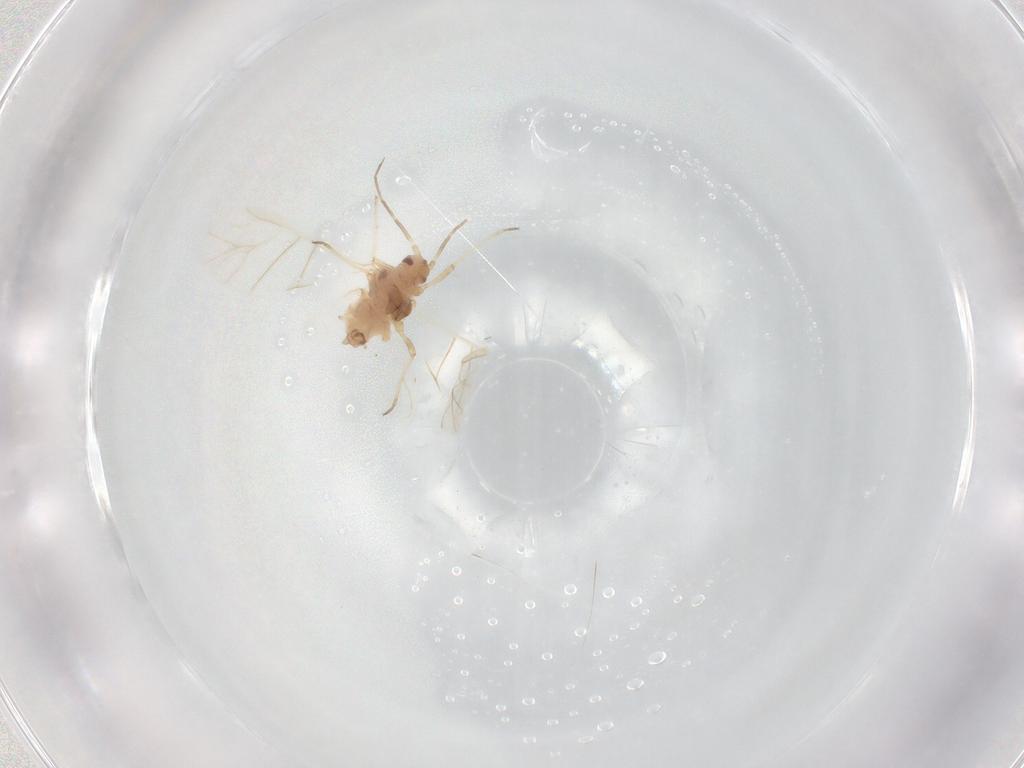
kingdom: Animalia
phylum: Arthropoda
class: Insecta
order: Hemiptera
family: Aphididae
